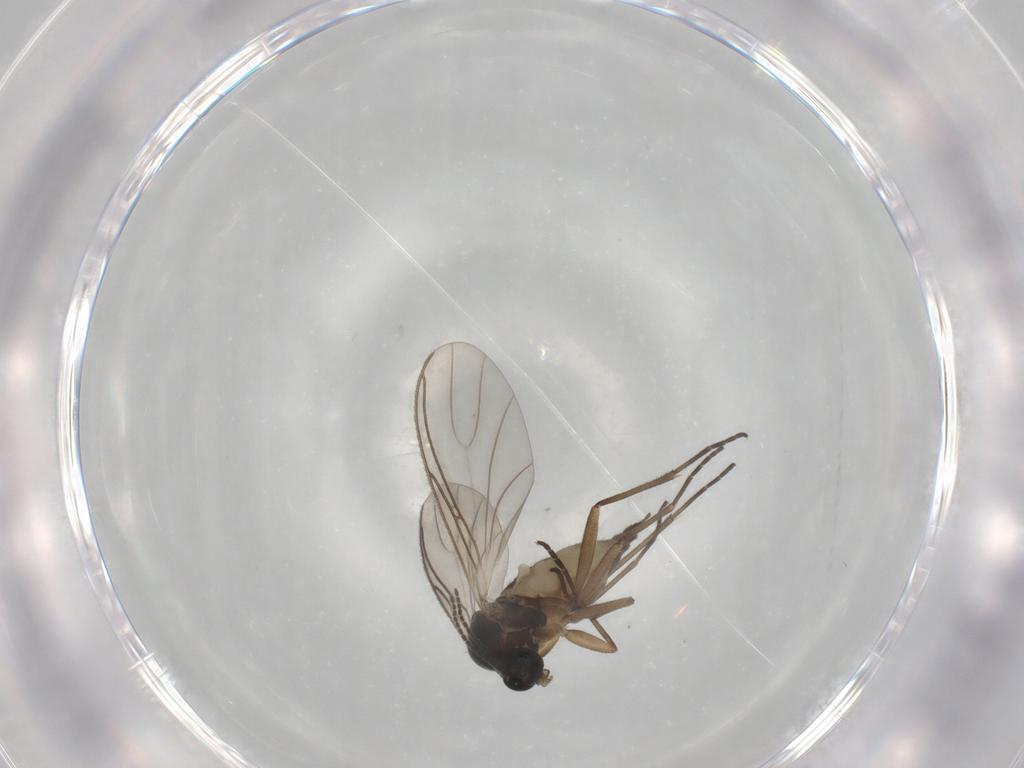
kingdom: Animalia
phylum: Arthropoda
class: Insecta
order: Diptera
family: Sciaridae
